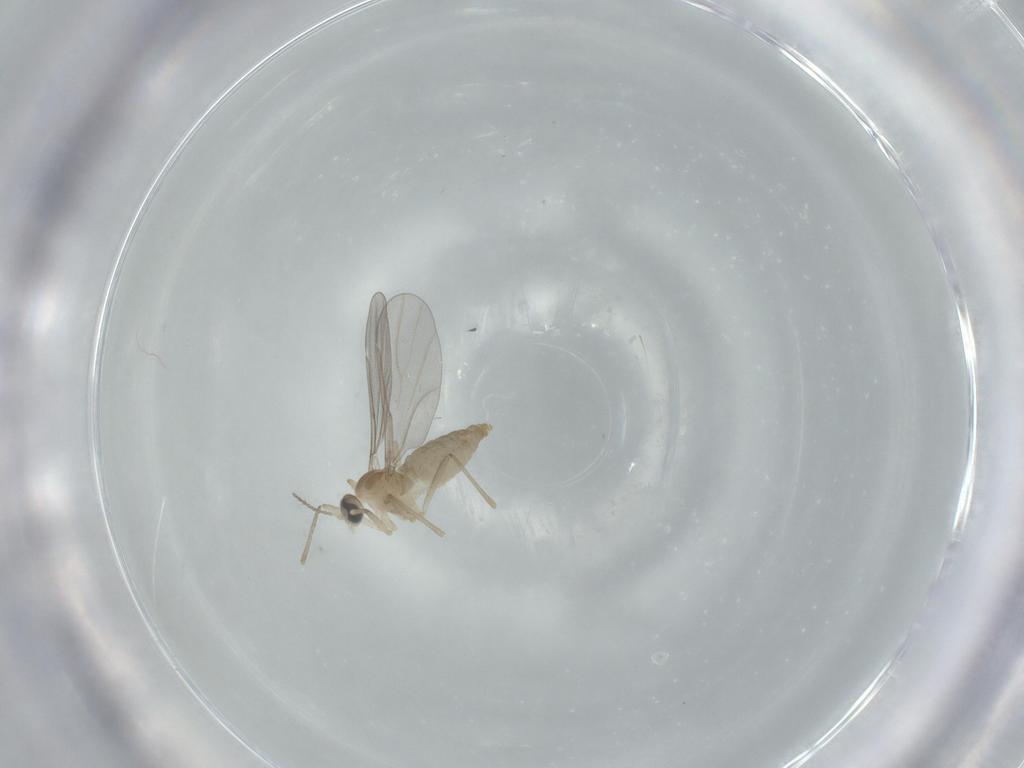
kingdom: Animalia
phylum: Arthropoda
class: Insecta
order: Diptera
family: Cecidomyiidae
